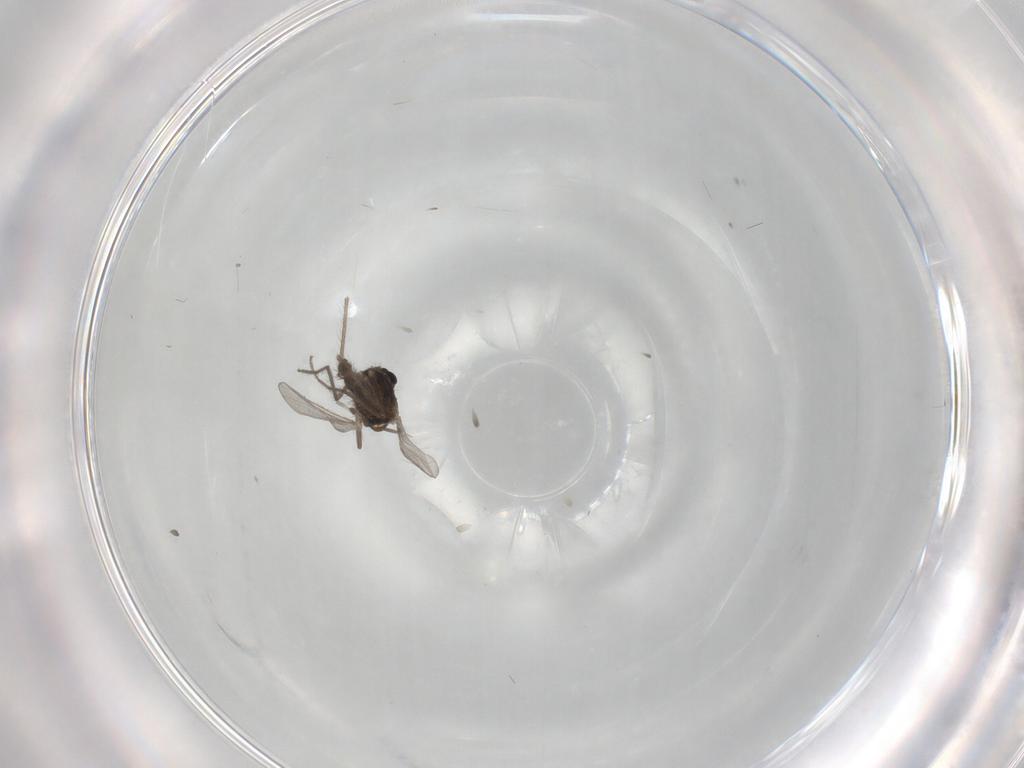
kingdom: Animalia
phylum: Arthropoda
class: Insecta
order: Diptera
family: Chironomidae
